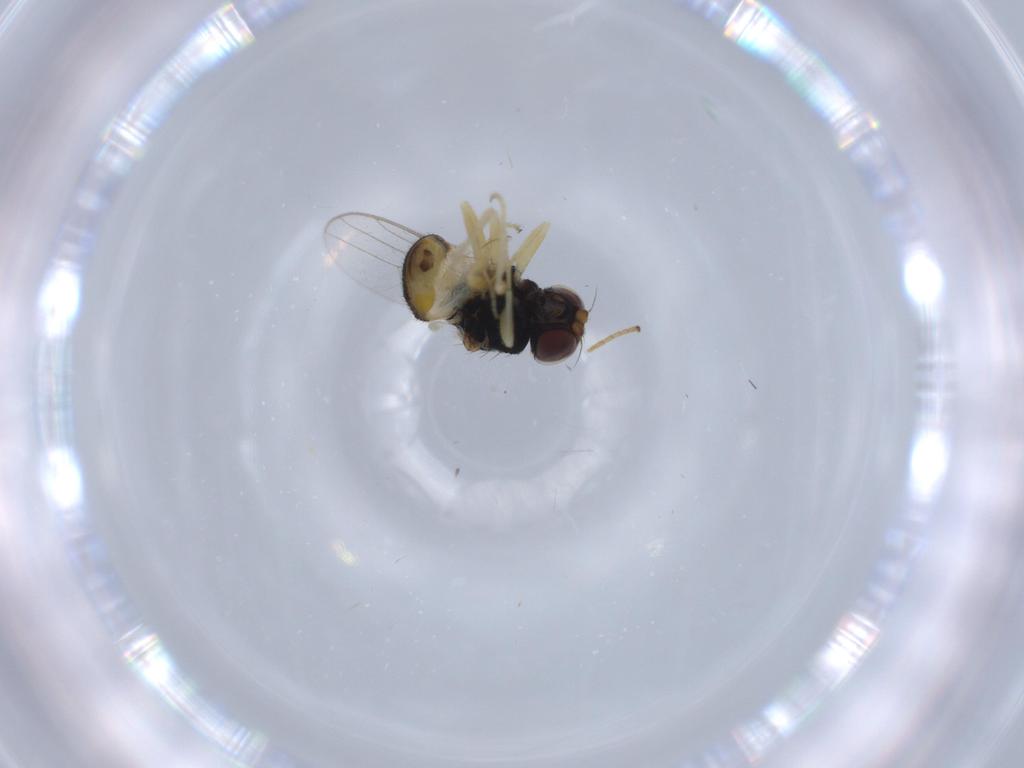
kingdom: Animalia
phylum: Arthropoda
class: Insecta
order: Diptera
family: Chloropidae
